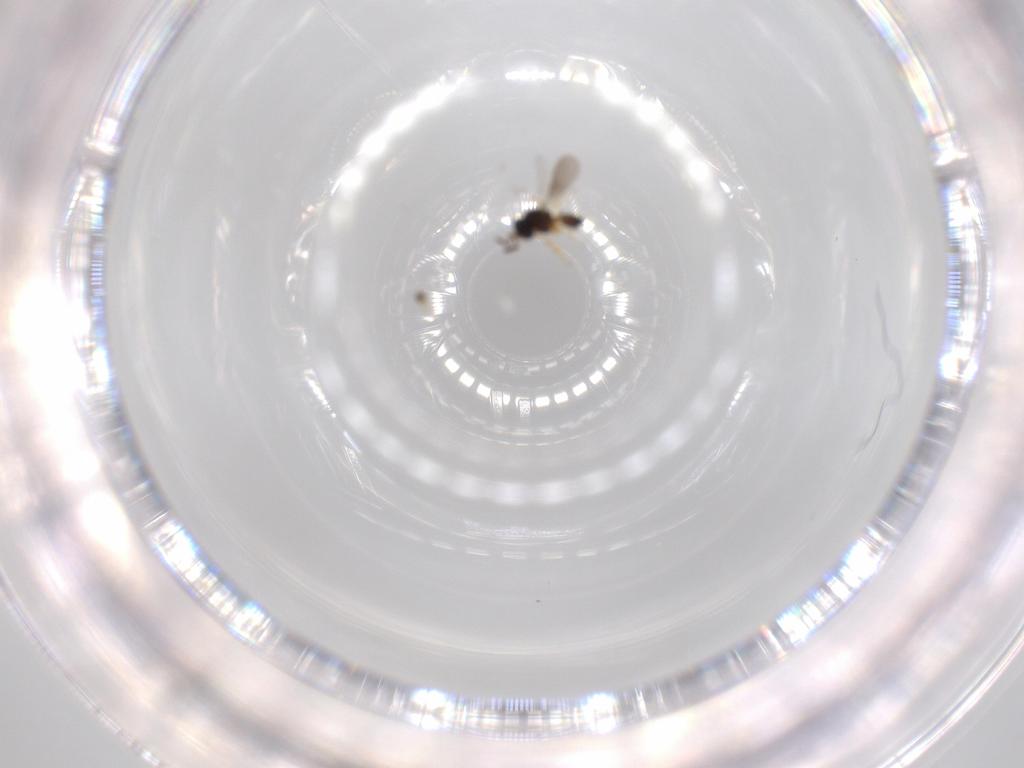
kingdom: Animalia
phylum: Arthropoda
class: Insecta
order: Hymenoptera
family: Scelionidae
